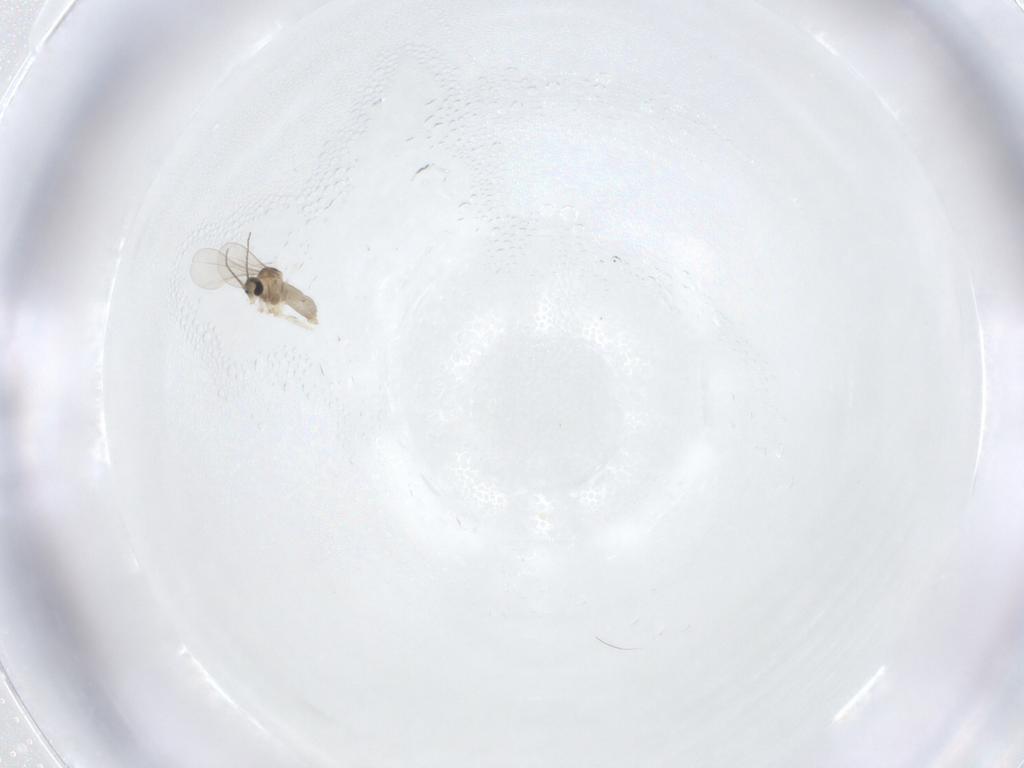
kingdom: Animalia
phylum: Arthropoda
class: Insecta
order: Diptera
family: Cecidomyiidae
